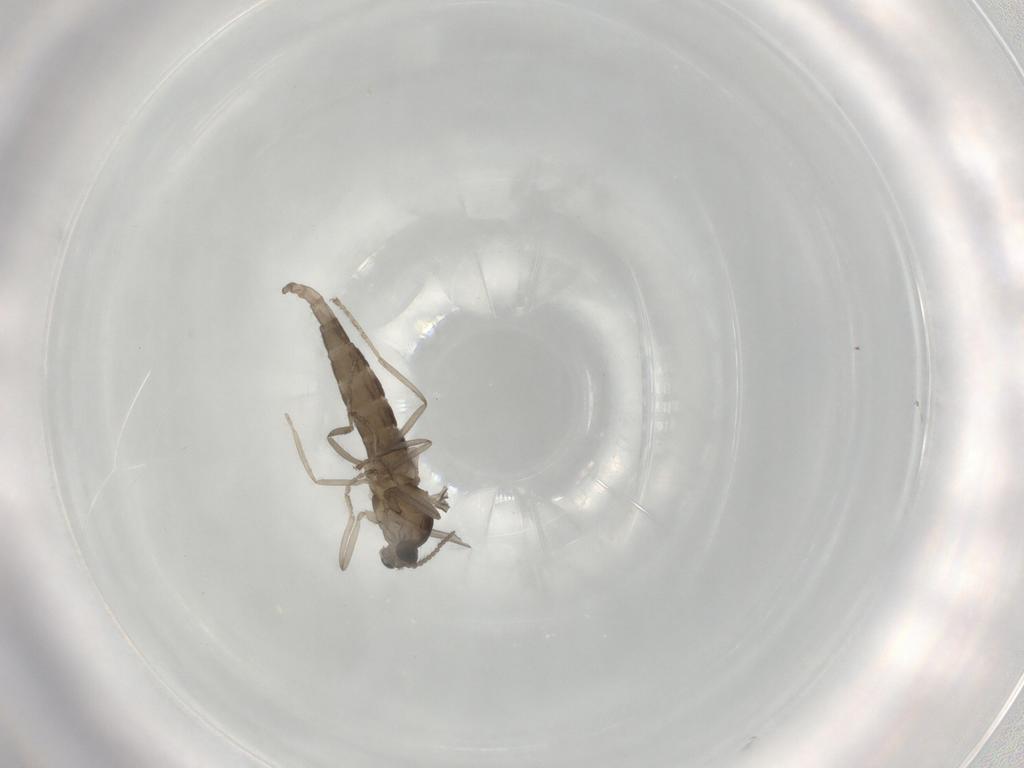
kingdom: Animalia
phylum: Arthropoda
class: Insecta
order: Diptera
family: Cecidomyiidae
